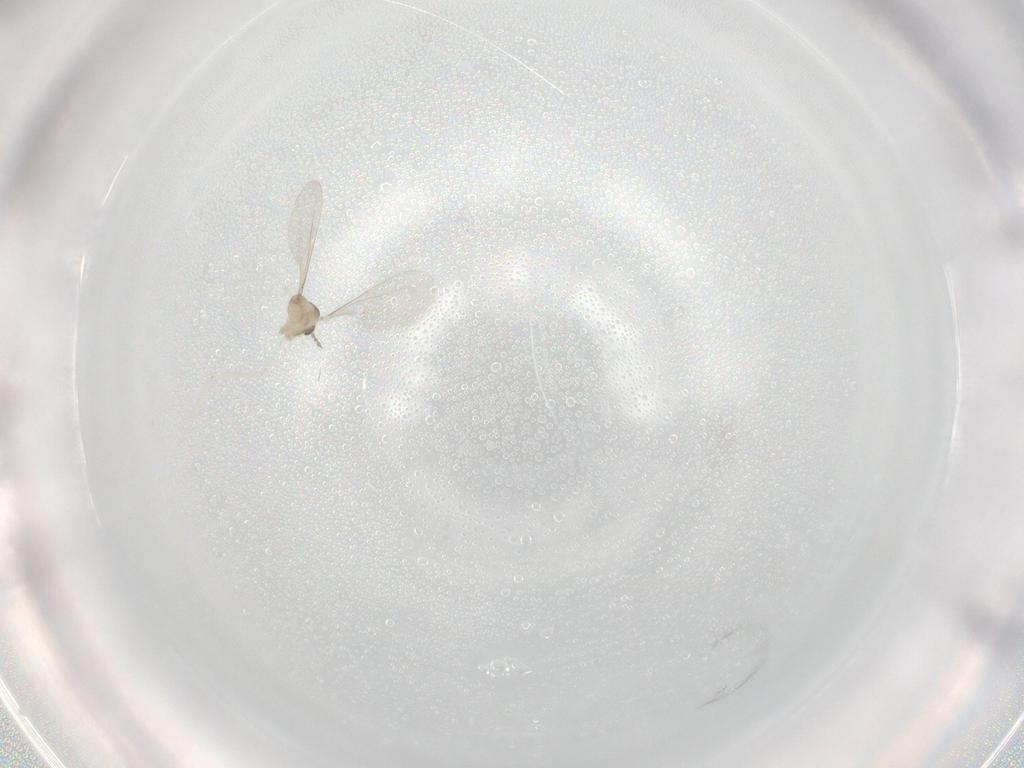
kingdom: Animalia
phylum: Arthropoda
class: Insecta
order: Diptera
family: Cecidomyiidae
